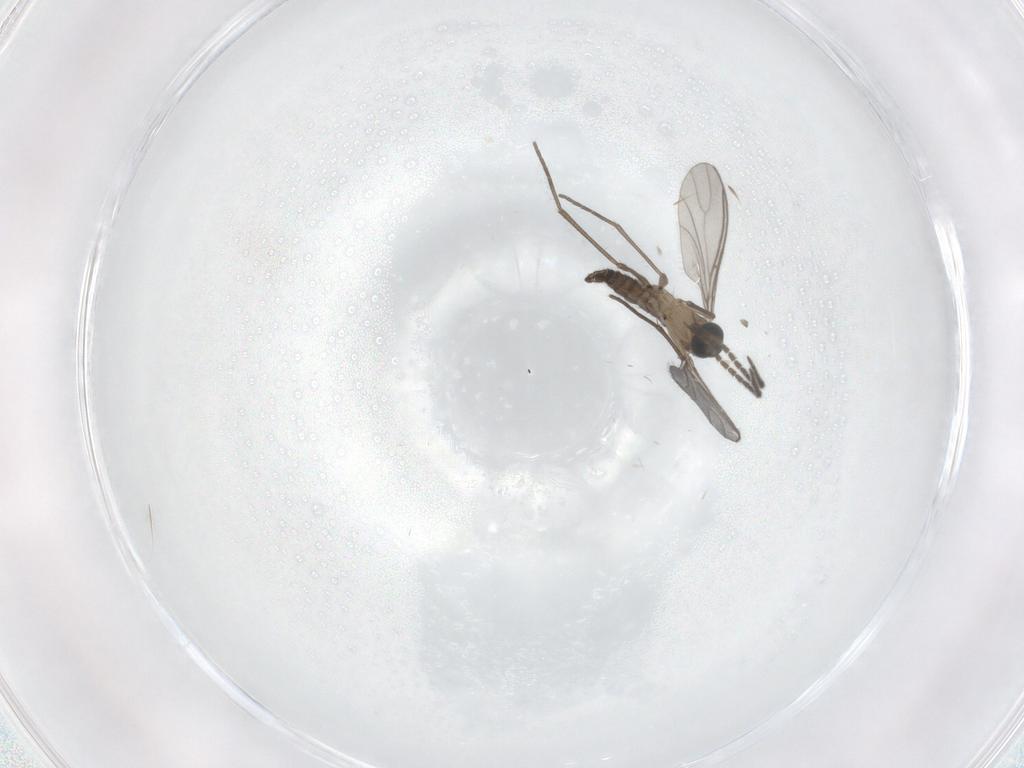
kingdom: Animalia
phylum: Arthropoda
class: Insecta
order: Diptera
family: Sciaridae
